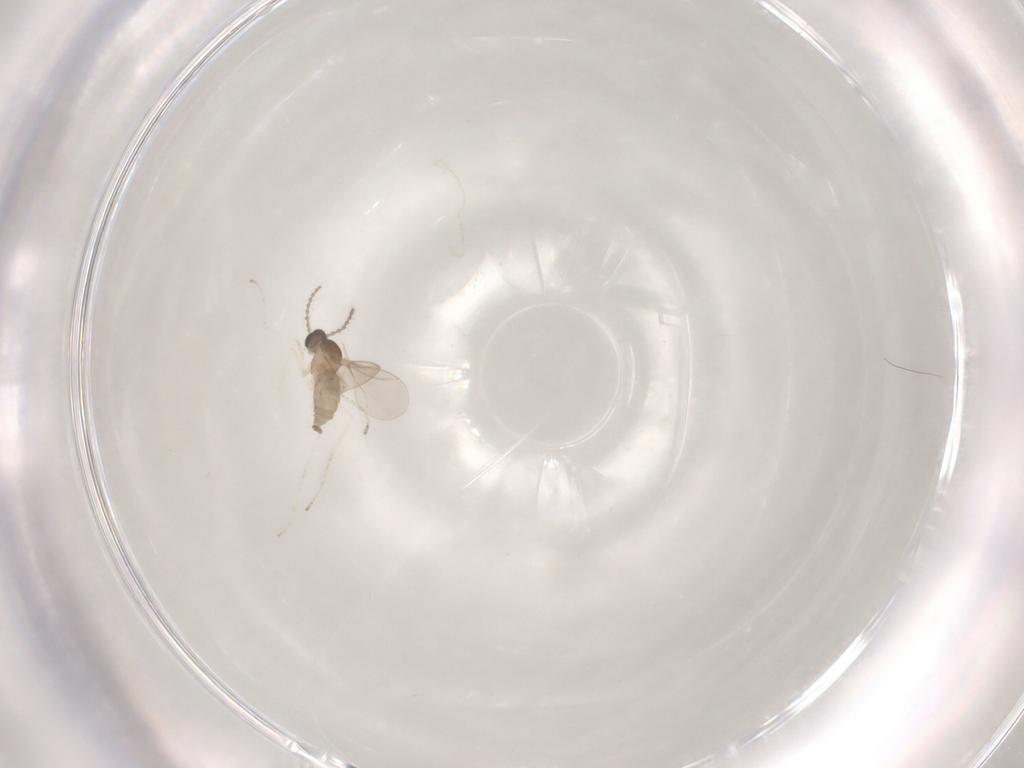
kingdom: Animalia
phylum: Arthropoda
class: Insecta
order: Diptera
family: Cecidomyiidae
